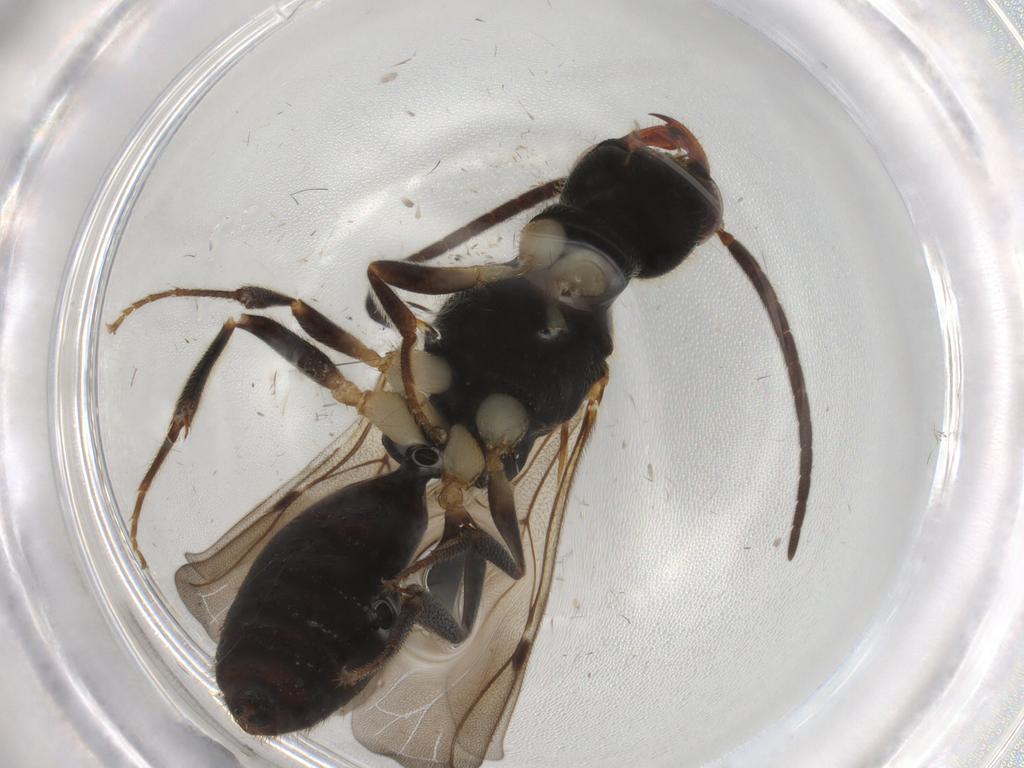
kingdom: Animalia
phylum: Arthropoda
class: Insecta
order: Hymenoptera
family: Bethylidae
